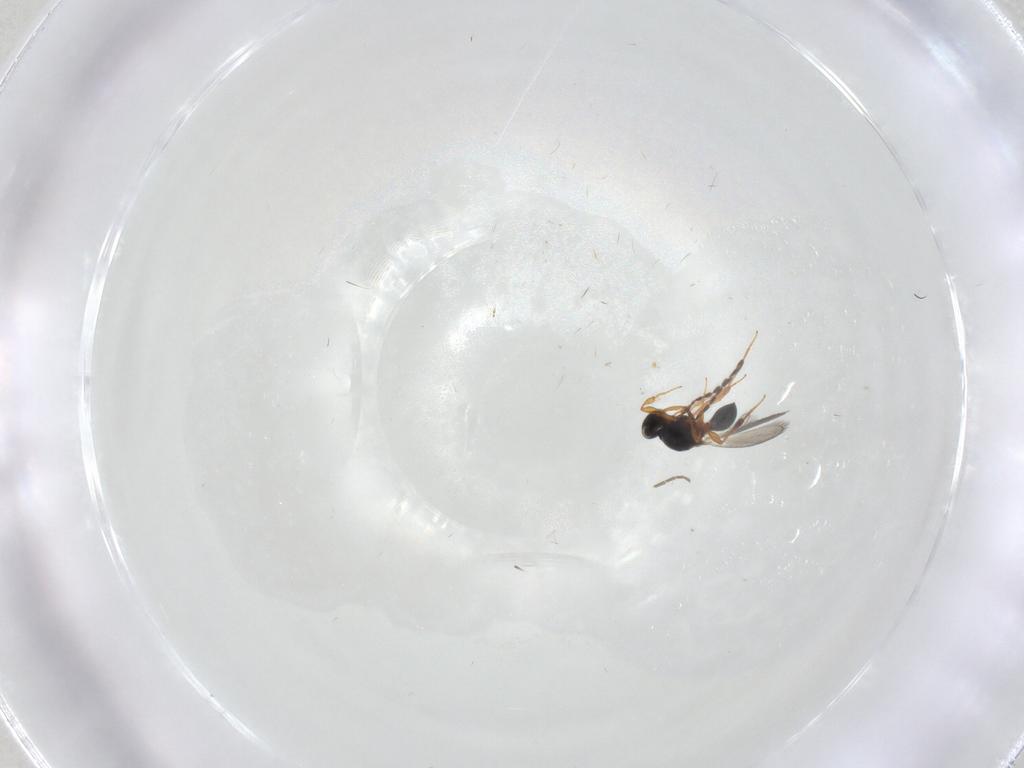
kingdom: Animalia
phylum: Arthropoda
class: Insecta
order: Hymenoptera
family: Platygastridae
